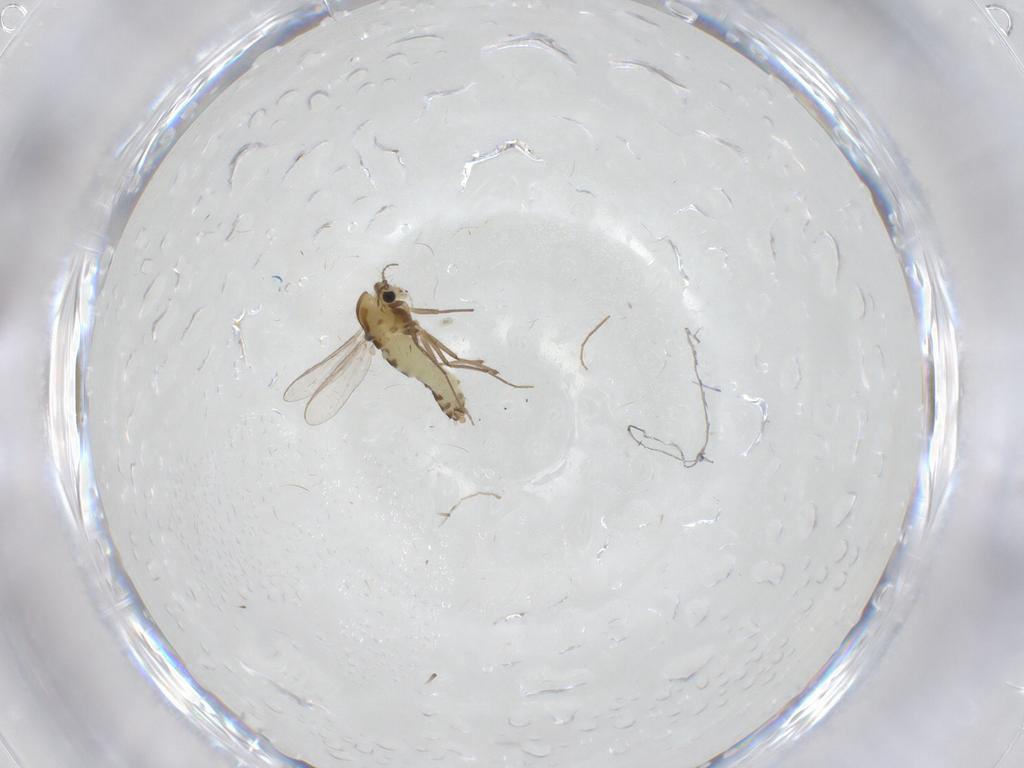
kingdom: Animalia
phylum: Arthropoda
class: Insecta
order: Diptera
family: Chironomidae
